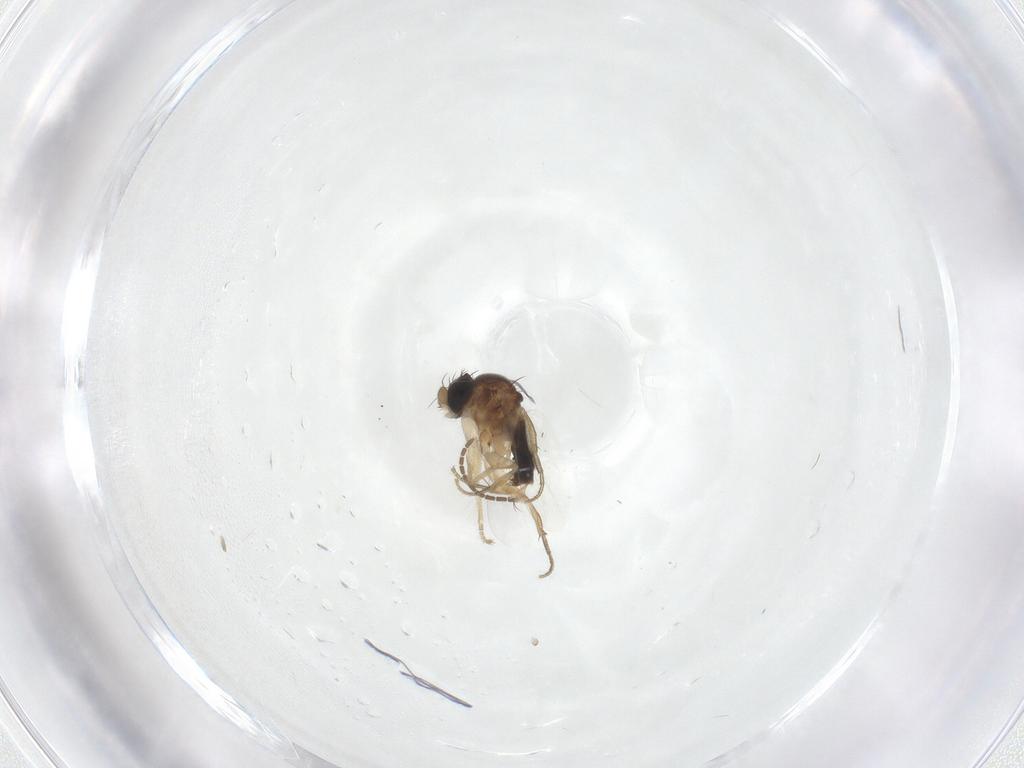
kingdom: Animalia
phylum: Arthropoda
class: Insecta
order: Diptera
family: Phoridae
